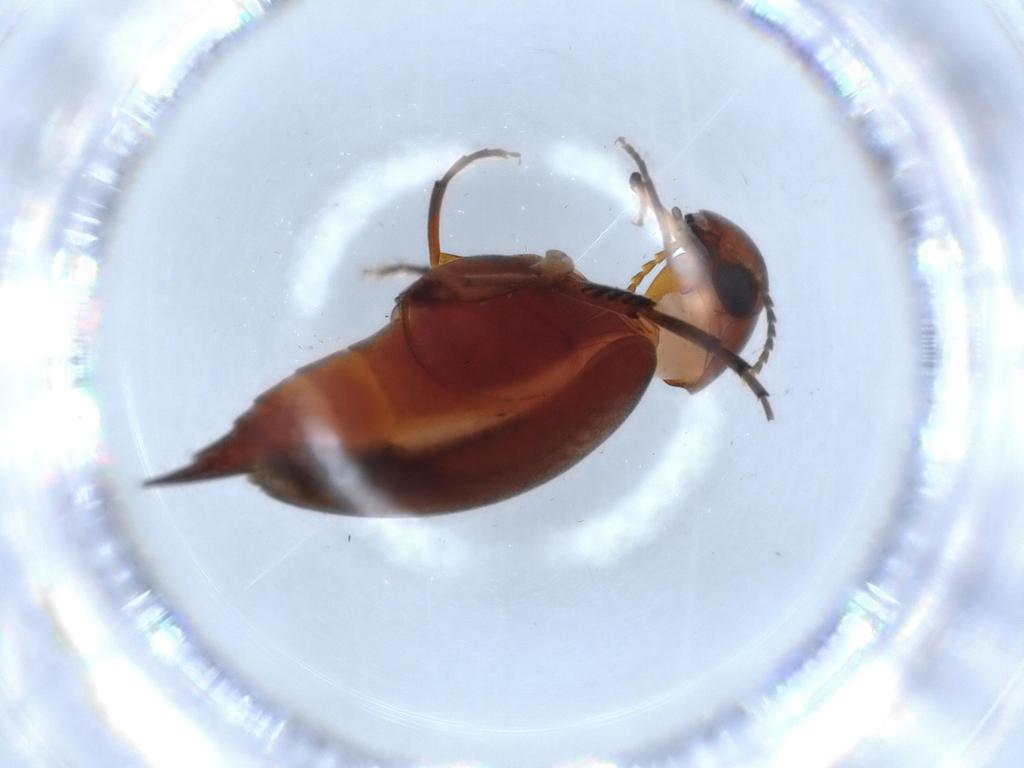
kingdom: Animalia
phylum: Arthropoda
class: Insecta
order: Coleoptera
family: Mordellidae
